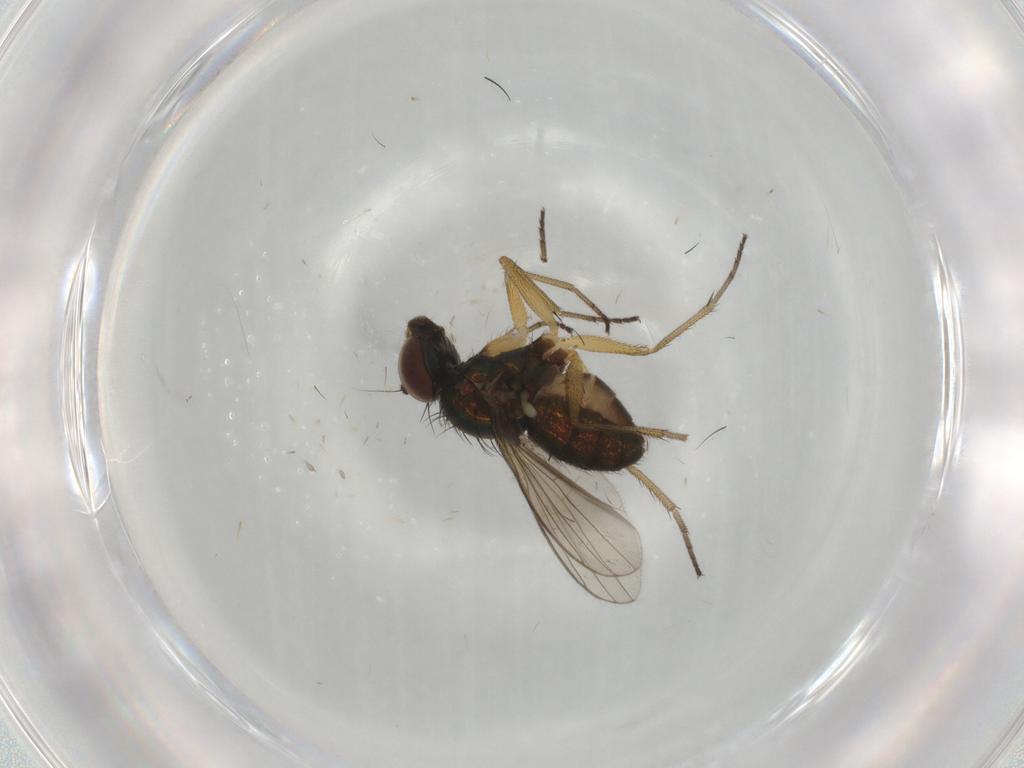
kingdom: Animalia
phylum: Arthropoda
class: Insecta
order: Diptera
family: Dolichopodidae
